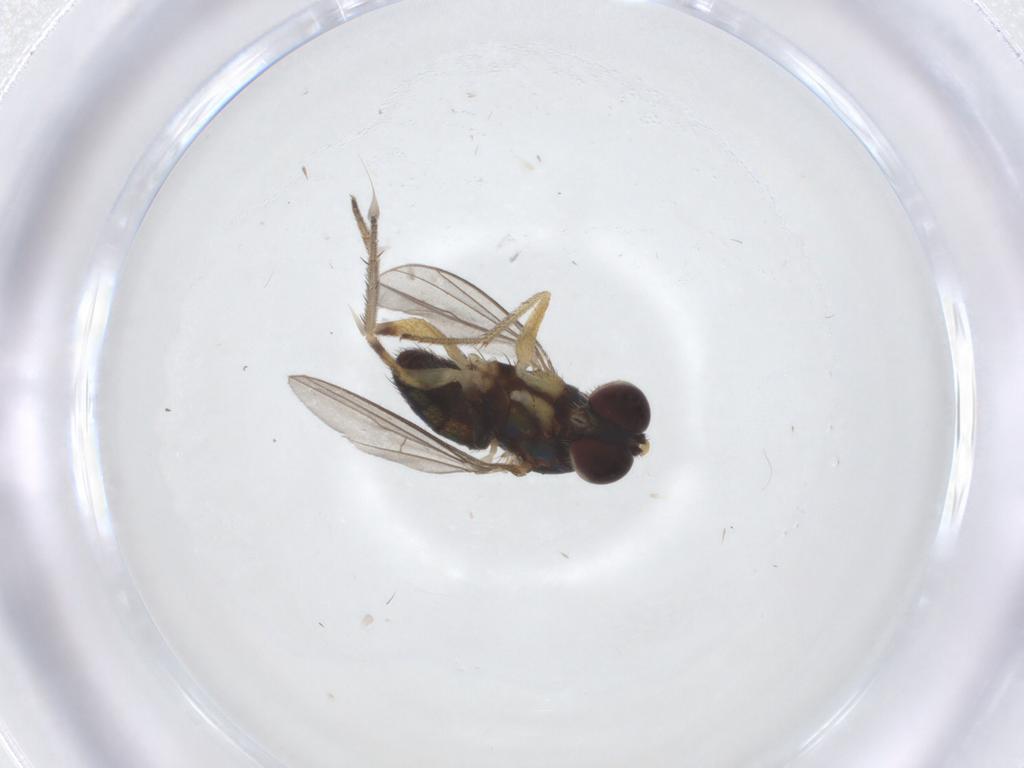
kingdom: Animalia
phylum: Arthropoda
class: Insecta
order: Diptera
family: Dolichopodidae
